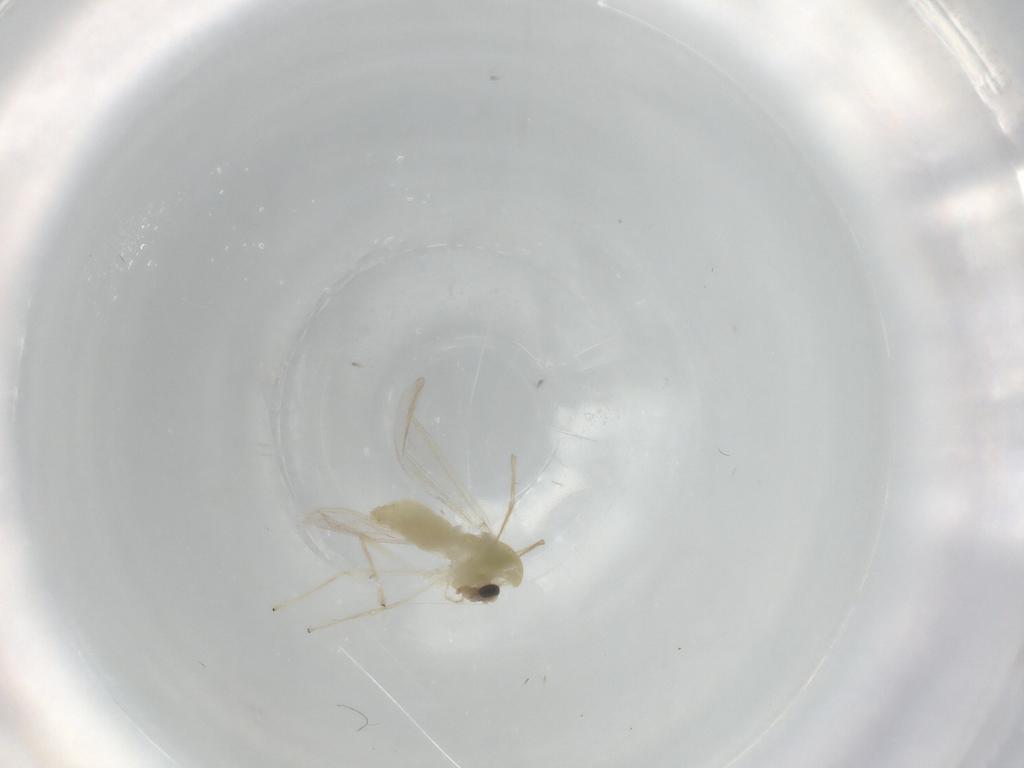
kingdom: Animalia
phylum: Arthropoda
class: Insecta
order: Diptera
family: Chironomidae
